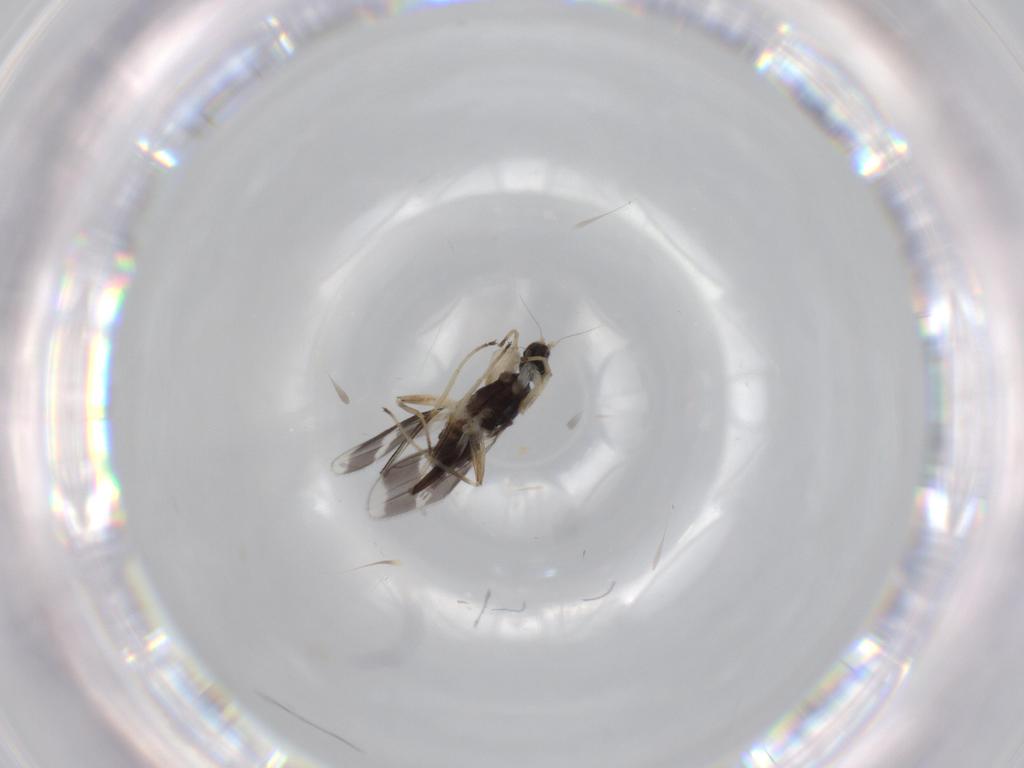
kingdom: Animalia
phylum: Arthropoda
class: Insecta
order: Diptera
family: Hybotidae
